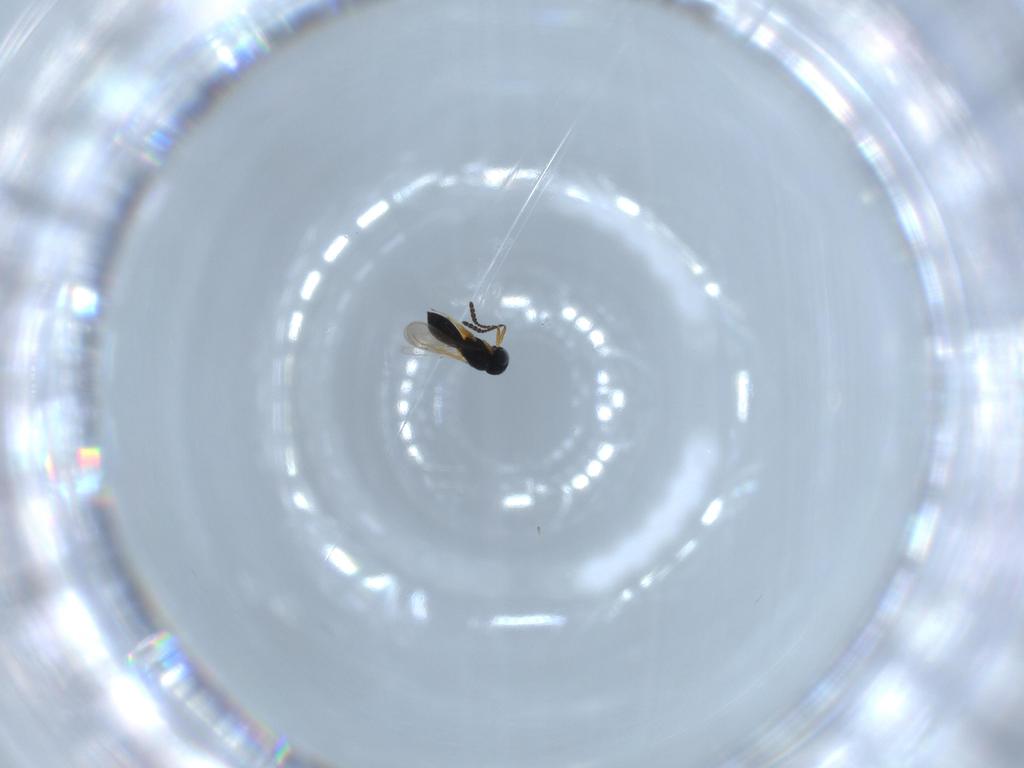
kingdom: Animalia
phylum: Arthropoda
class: Insecta
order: Hymenoptera
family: Scelionidae
